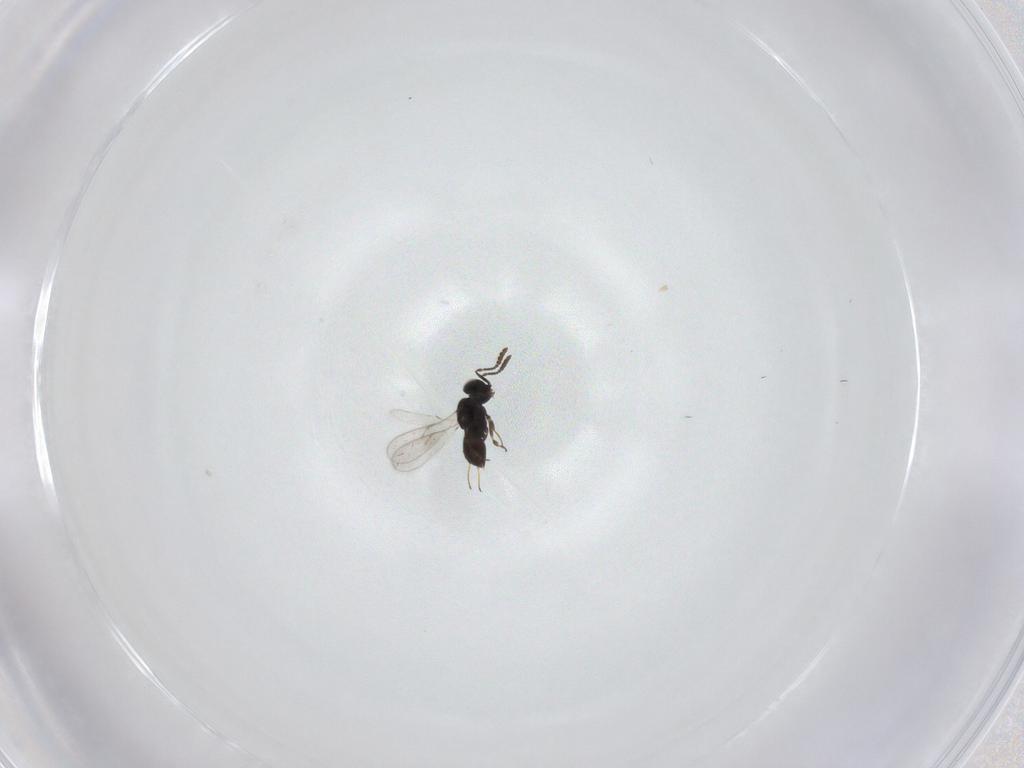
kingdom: Animalia
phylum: Arthropoda
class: Insecta
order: Hymenoptera
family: Scelionidae
